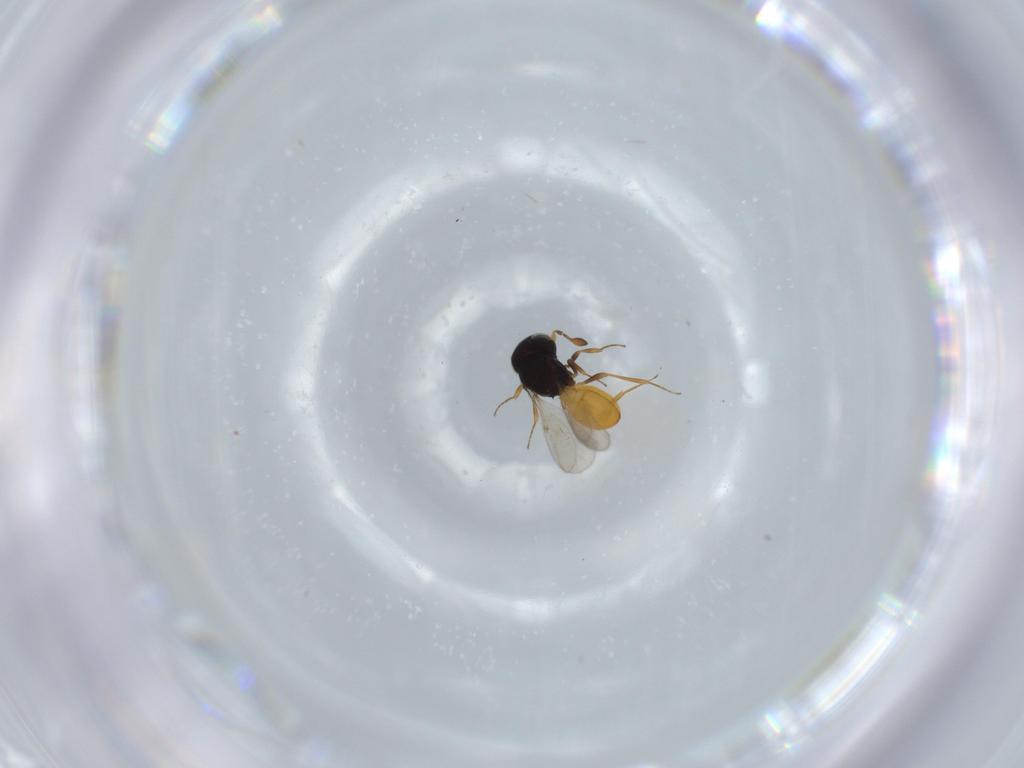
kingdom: Animalia
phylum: Arthropoda
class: Insecta
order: Hymenoptera
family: Scelionidae
